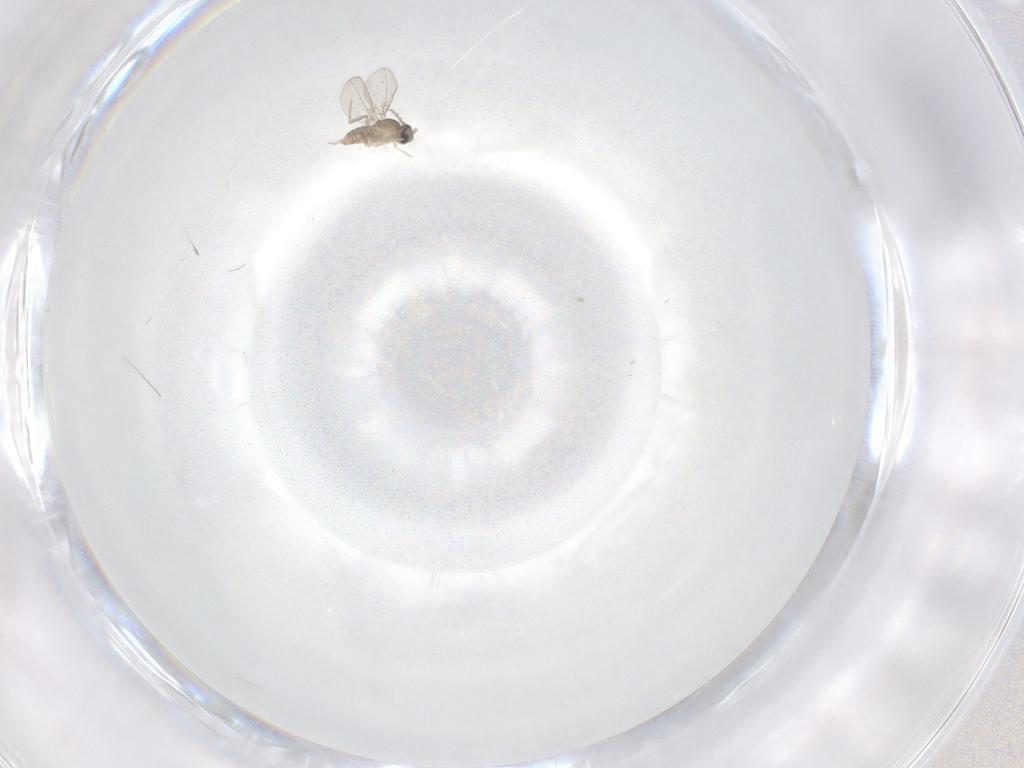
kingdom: Animalia
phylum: Arthropoda
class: Insecta
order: Diptera
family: Cecidomyiidae
